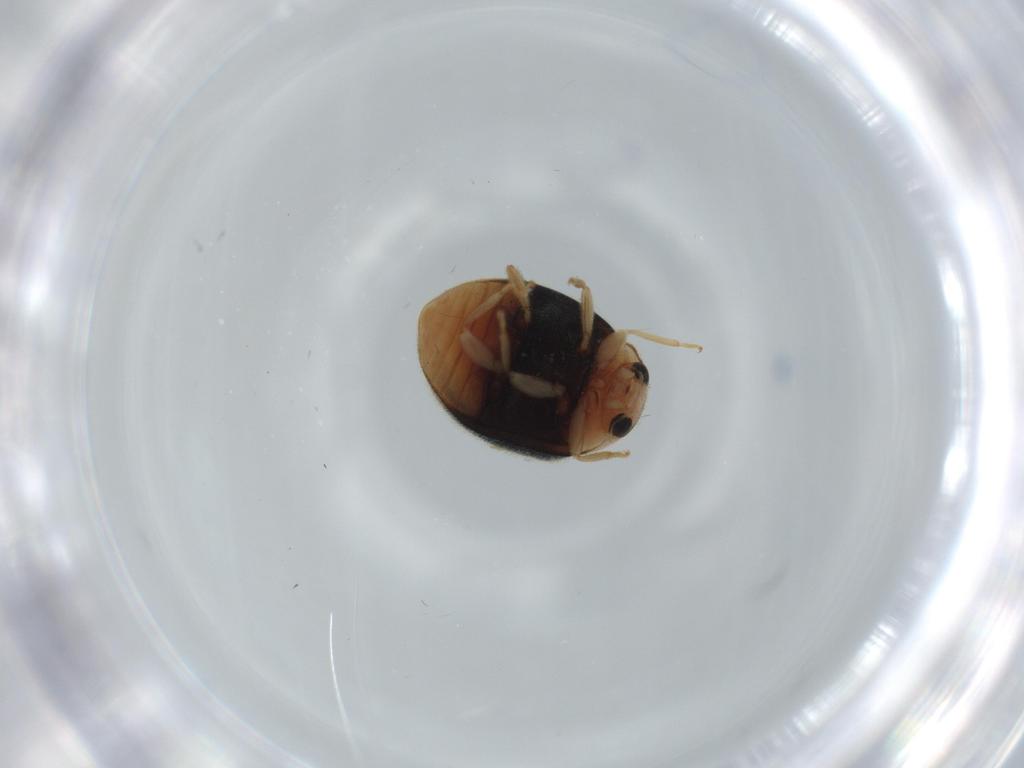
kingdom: Animalia
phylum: Arthropoda
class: Insecta
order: Coleoptera
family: Coccinellidae
